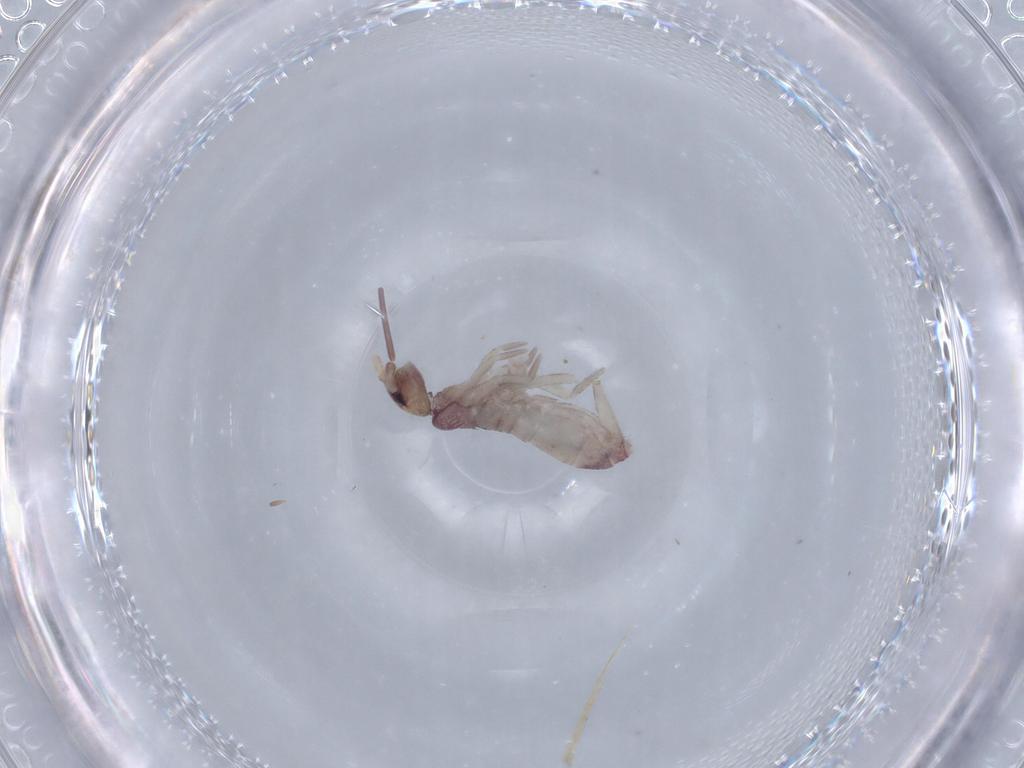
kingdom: Animalia
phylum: Arthropoda
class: Collembola
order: Entomobryomorpha
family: Tomoceridae
